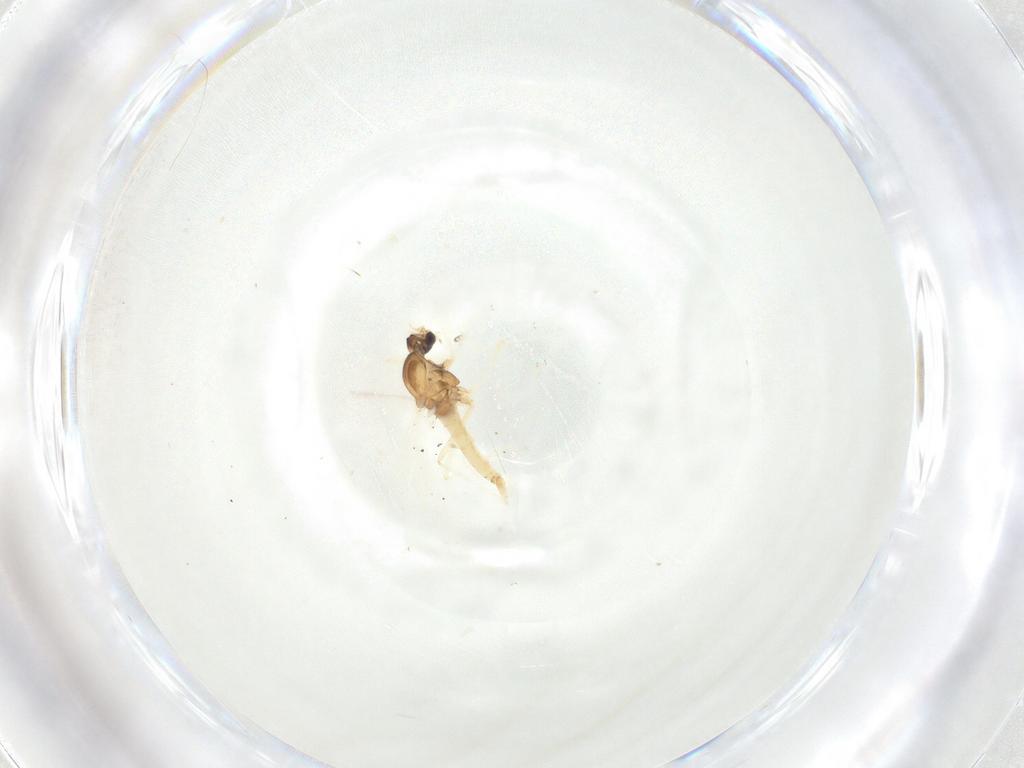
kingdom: Animalia
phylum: Arthropoda
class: Insecta
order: Diptera
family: Cecidomyiidae
